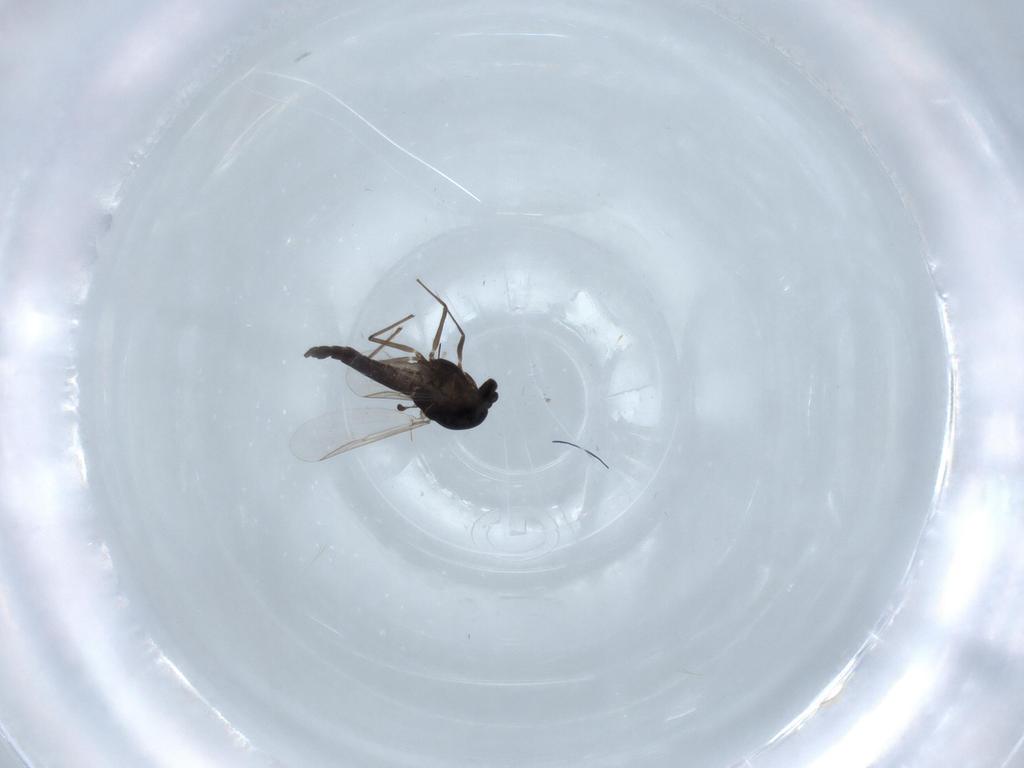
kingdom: Animalia
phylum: Arthropoda
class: Insecta
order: Diptera
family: Chironomidae
